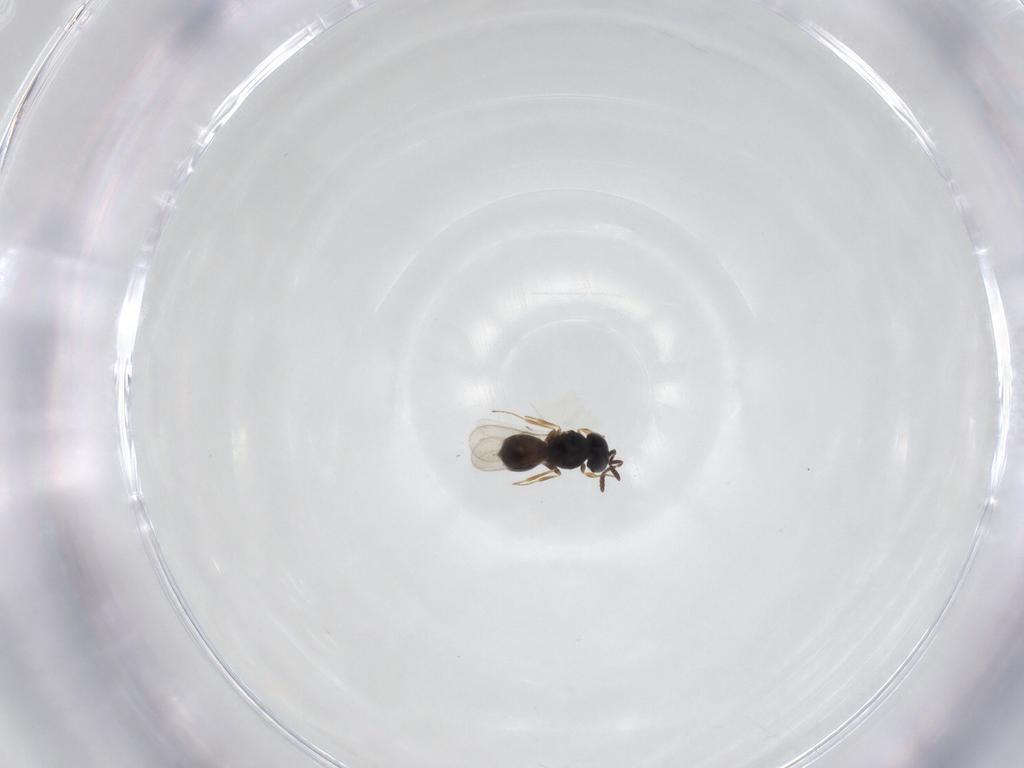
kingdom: Animalia
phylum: Arthropoda
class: Insecta
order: Hymenoptera
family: Scelionidae
